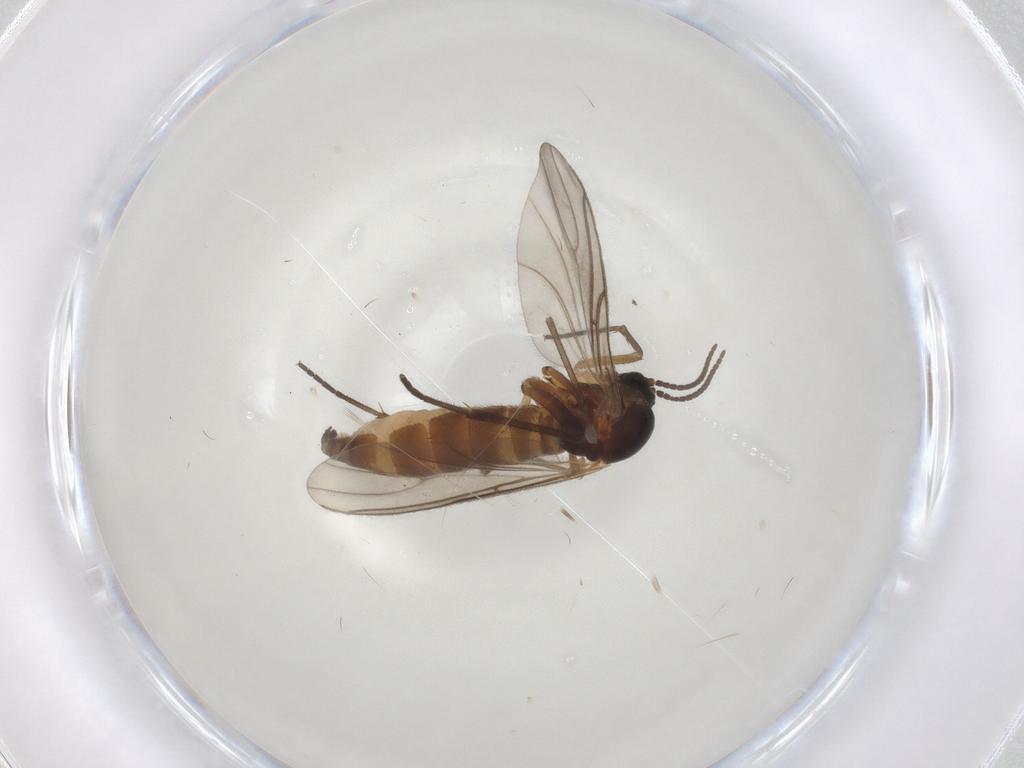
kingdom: Animalia
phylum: Arthropoda
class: Insecta
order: Diptera
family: Sciaridae
